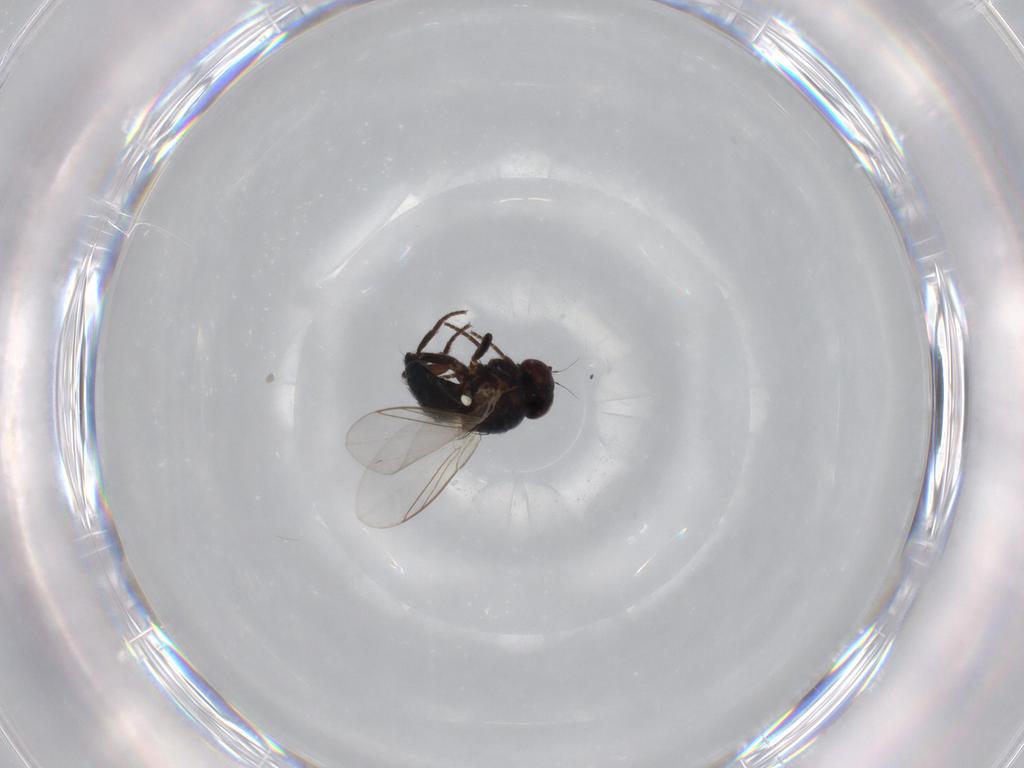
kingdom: Animalia
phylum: Arthropoda
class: Insecta
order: Diptera
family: Agromyzidae
